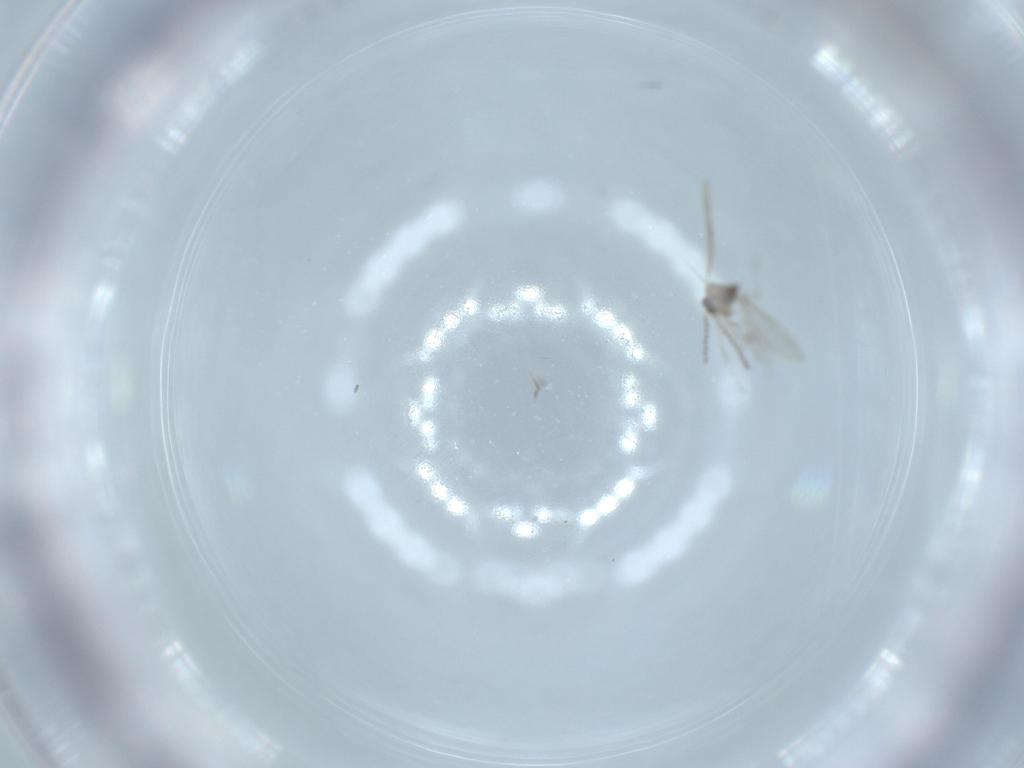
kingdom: Animalia
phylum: Arthropoda
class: Insecta
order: Diptera
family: Cecidomyiidae
